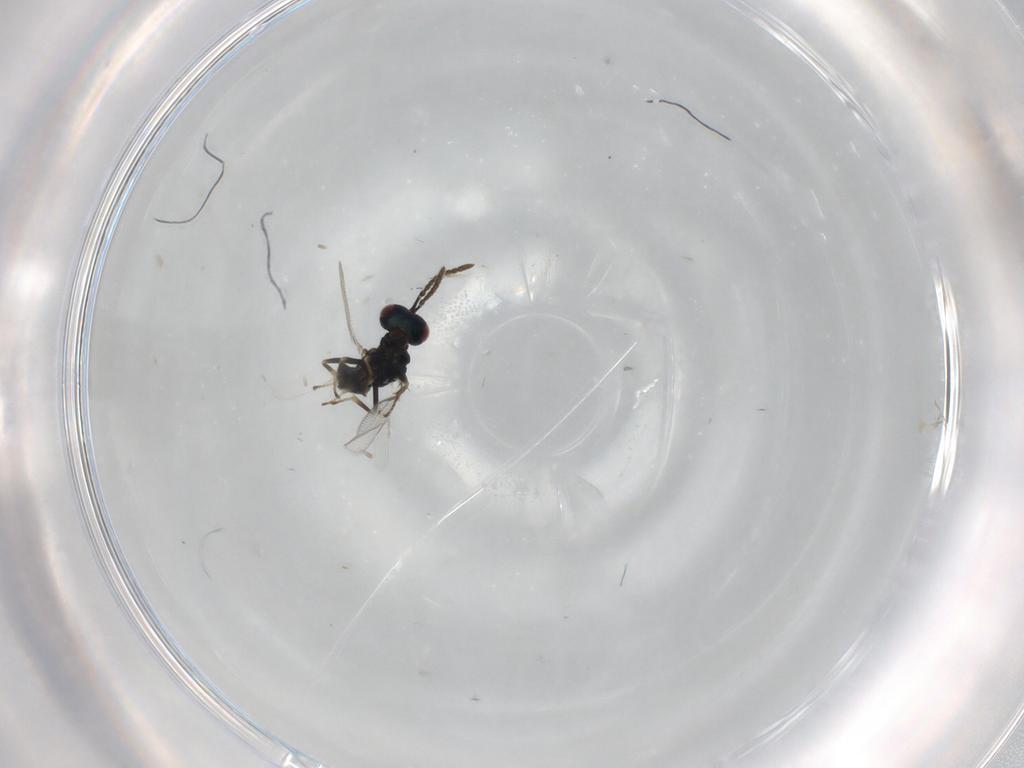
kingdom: Animalia
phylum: Arthropoda
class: Insecta
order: Hymenoptera
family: Pteromalidae
